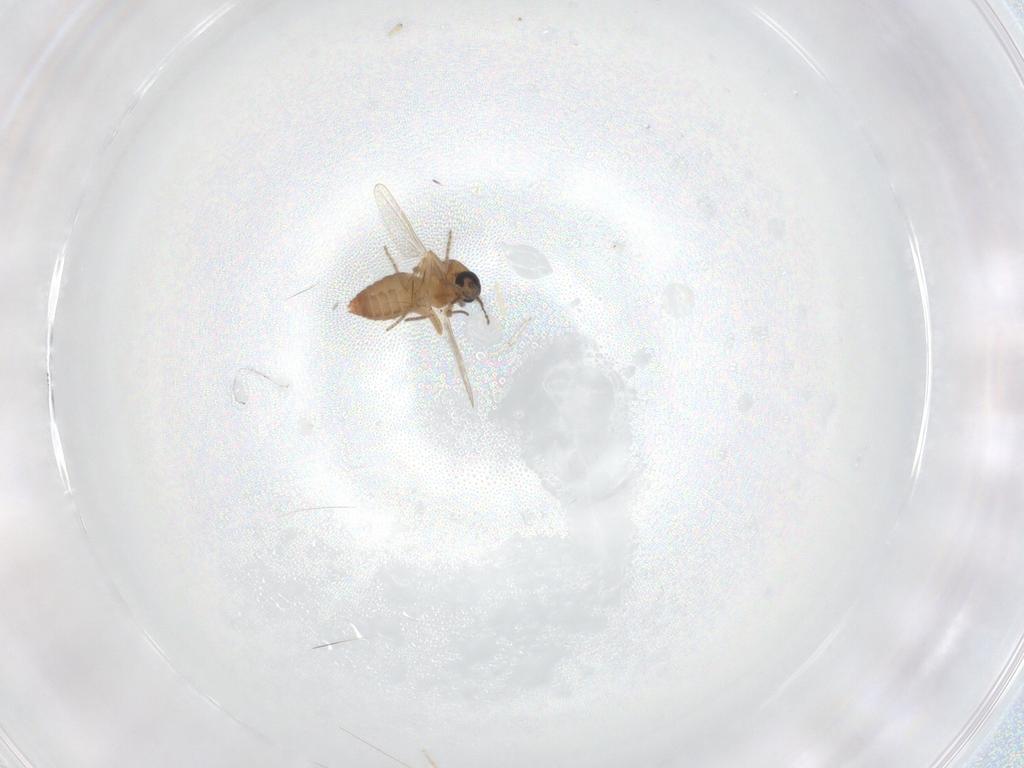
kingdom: Animalia
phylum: Arthropoda
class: Insecta
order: Diptera
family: Ceratopogonidae
